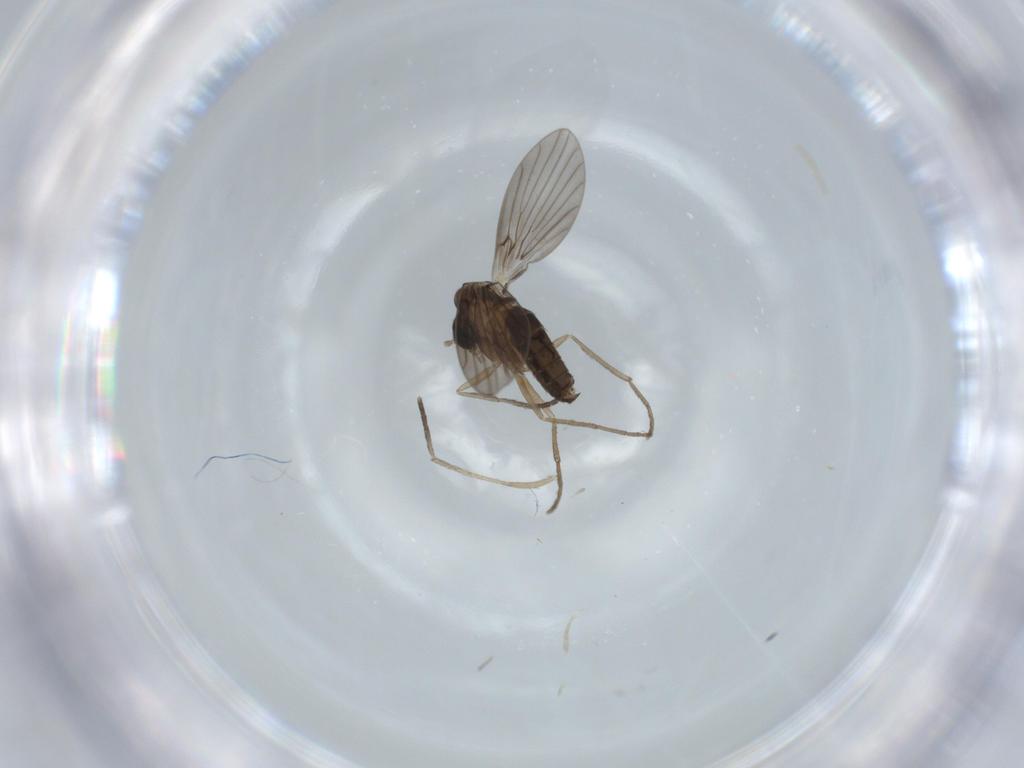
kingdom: Animalia
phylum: Arthropoda
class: Insecta
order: Diptera
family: Psychodidae
